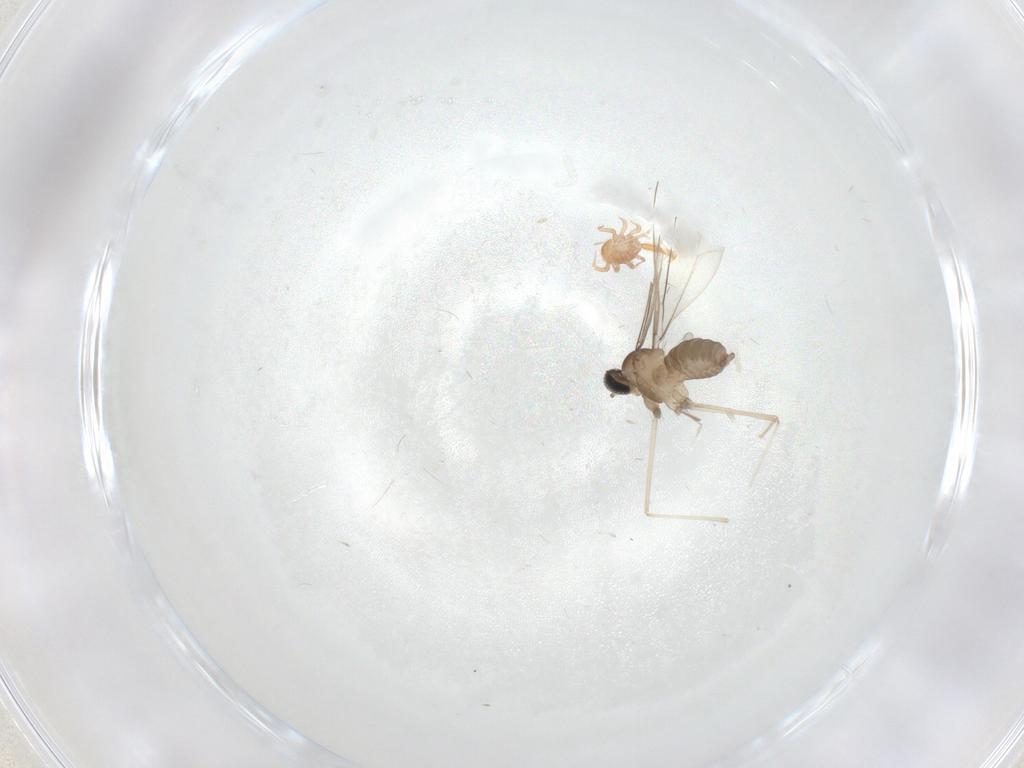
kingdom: Animalia
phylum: Arthropoda
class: Insecta
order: Diptera
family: Cecidomyiidae
